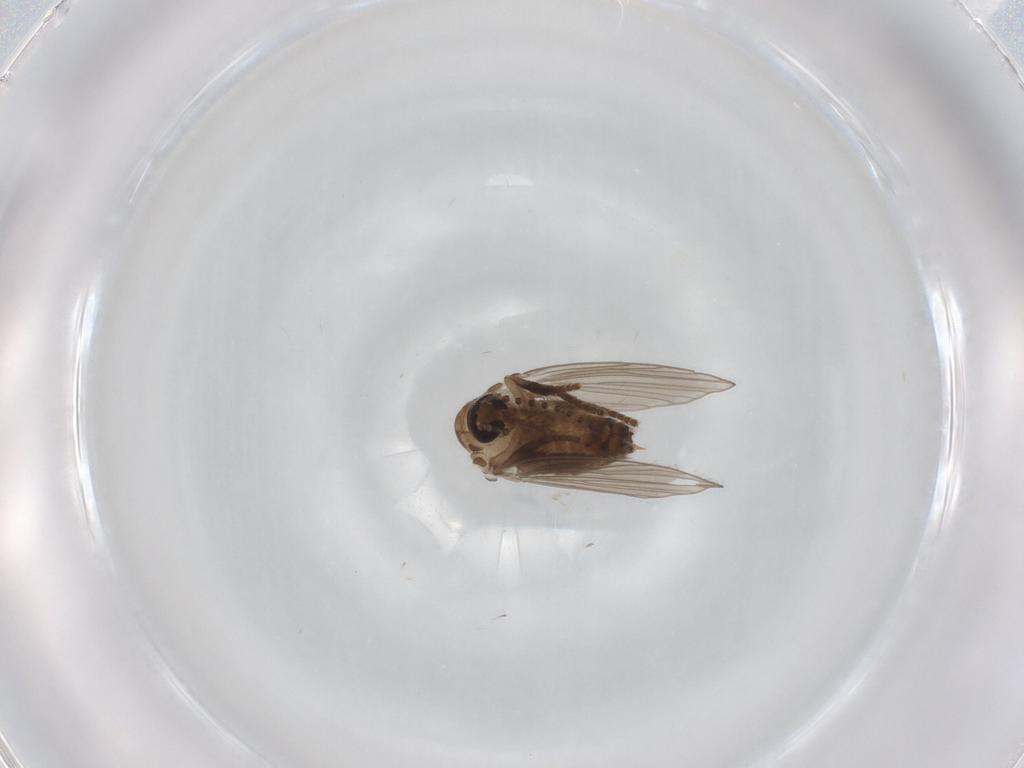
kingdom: Animalia
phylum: Arthropoda
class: Insecta
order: Diptera
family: Psychodidae
